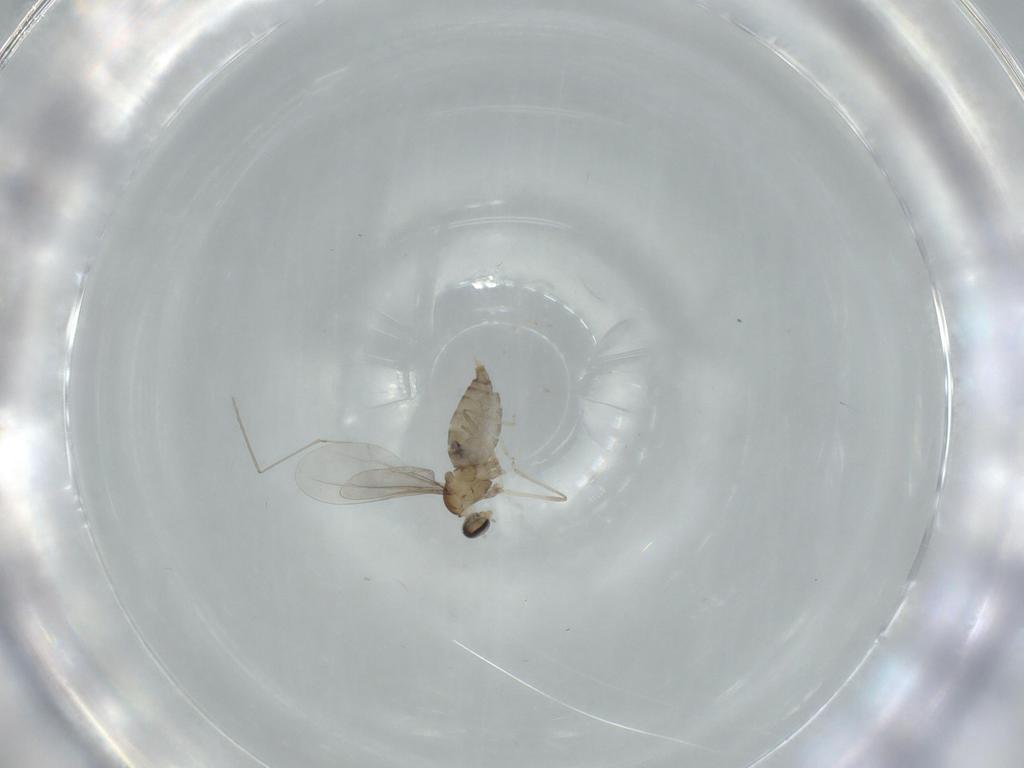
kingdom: Animalia
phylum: Arthropoda
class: Insecta
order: Diptera
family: Cecidomyiidae
